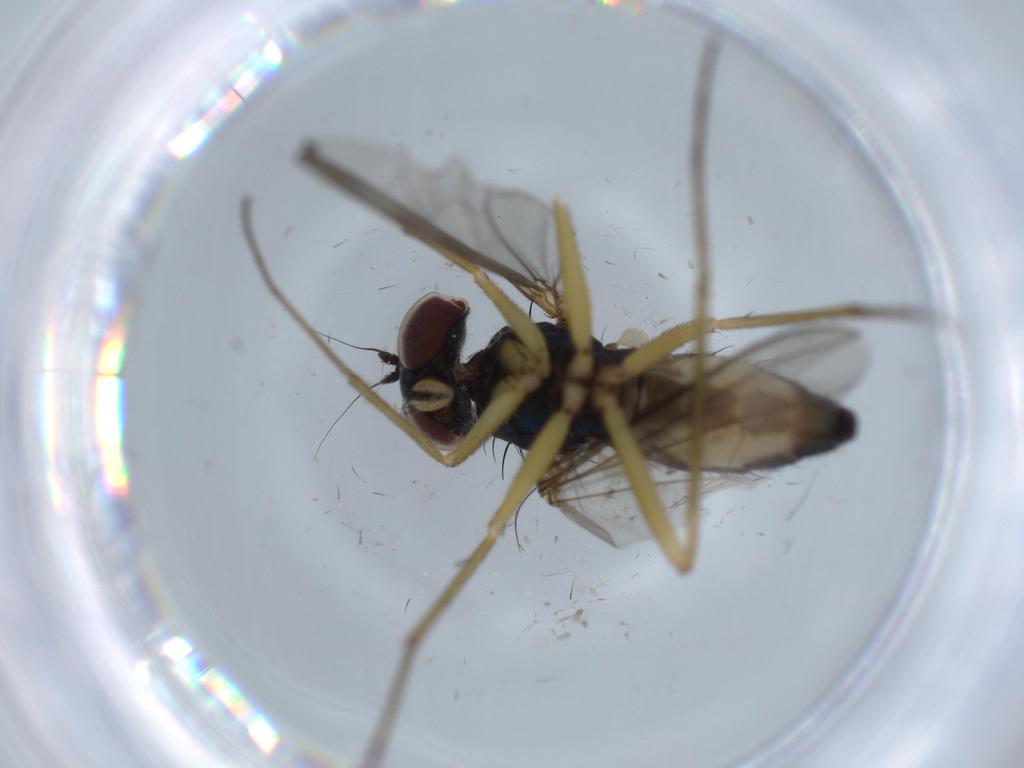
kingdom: Animalia
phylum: Arthropoda
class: Insecta
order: Diptera
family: Dolichopodidae
